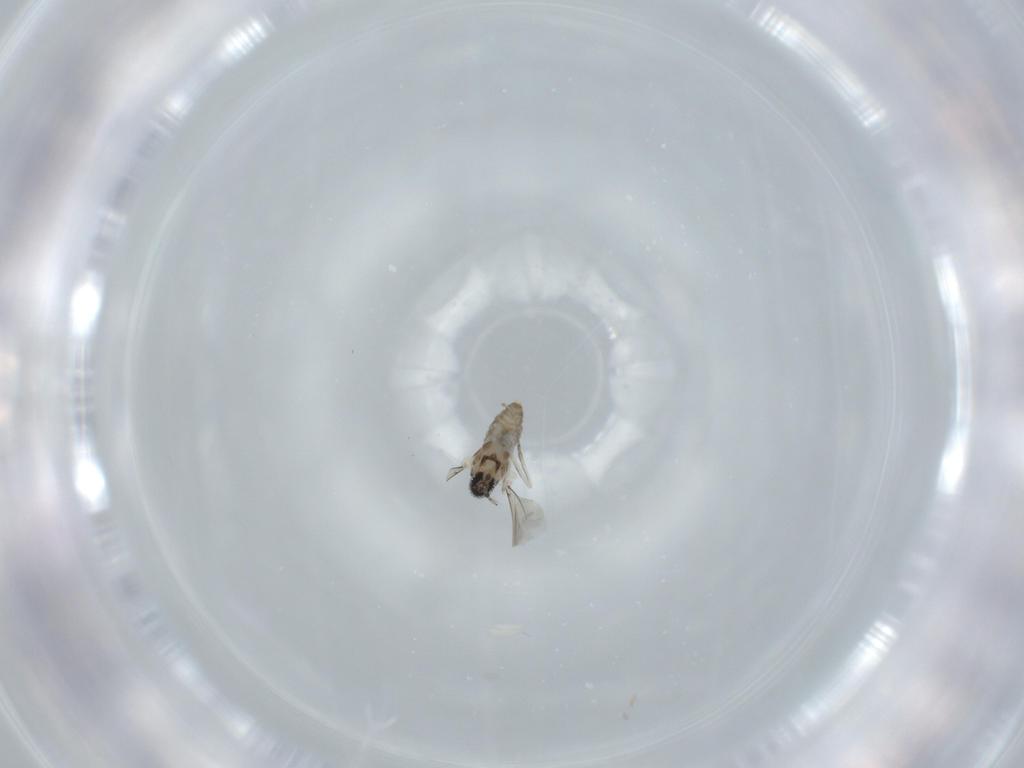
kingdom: Animalia
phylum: Arthropoda
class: Insecta
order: Diptera
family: Cecidomyiidae
